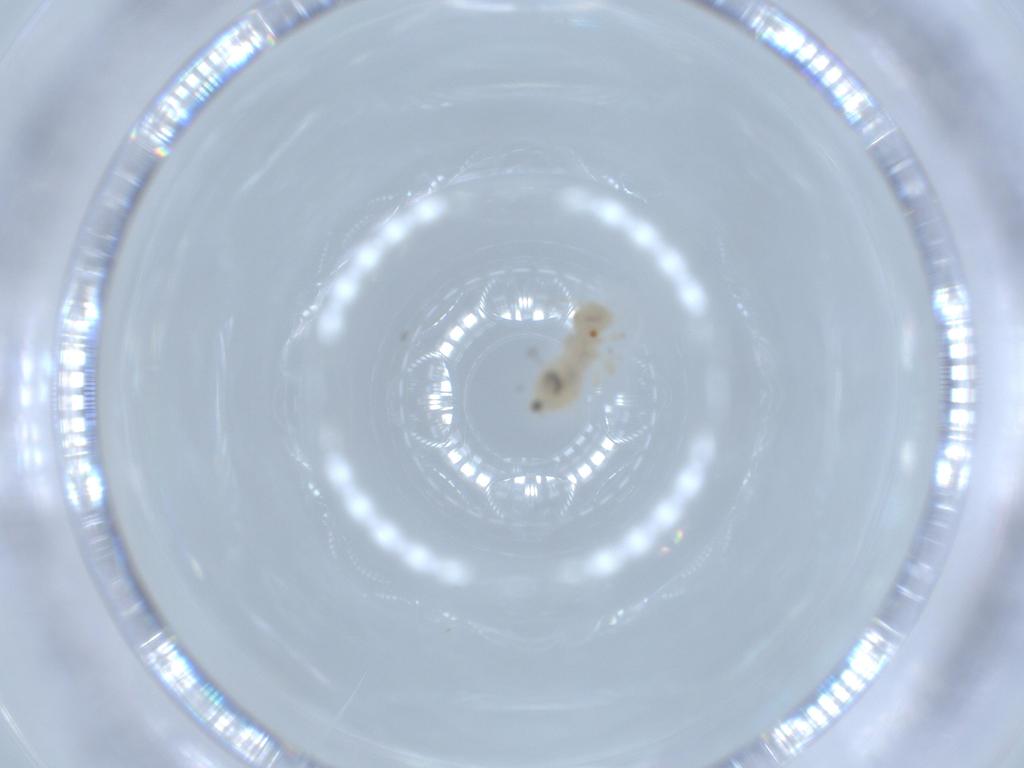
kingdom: Animalia
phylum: Arthropoda
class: Insecta
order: Psocodea
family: Caeciliusidae
